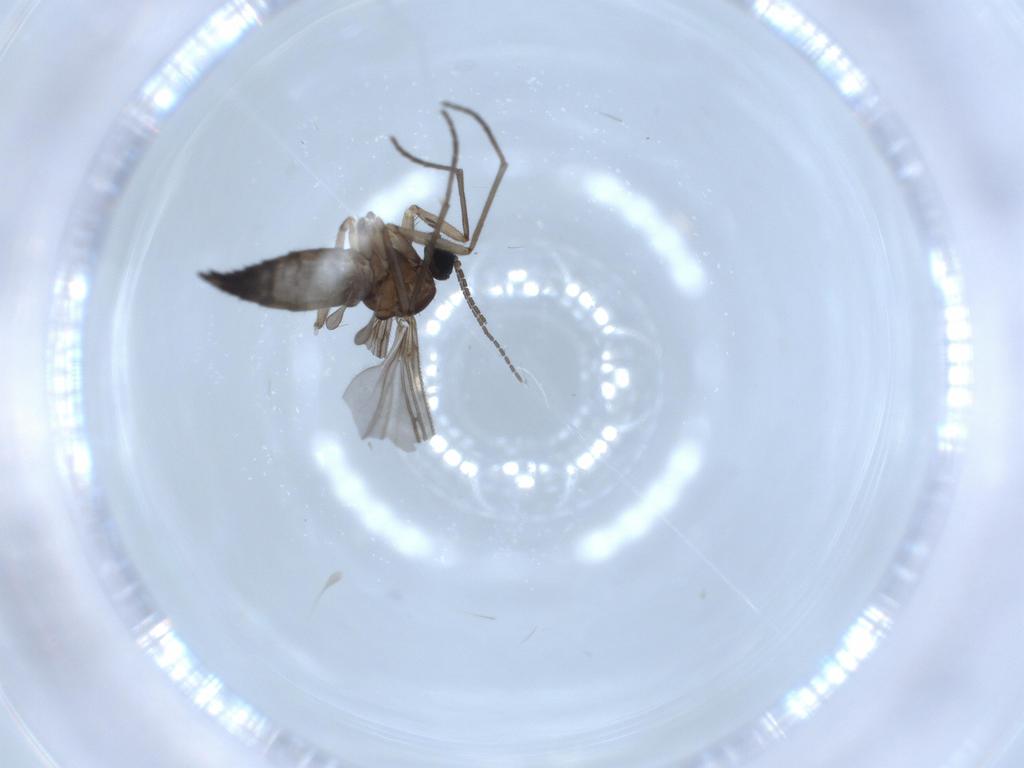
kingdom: Animalia
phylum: Arthropoda
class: Insecta
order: Diptera
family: Sciaridae
